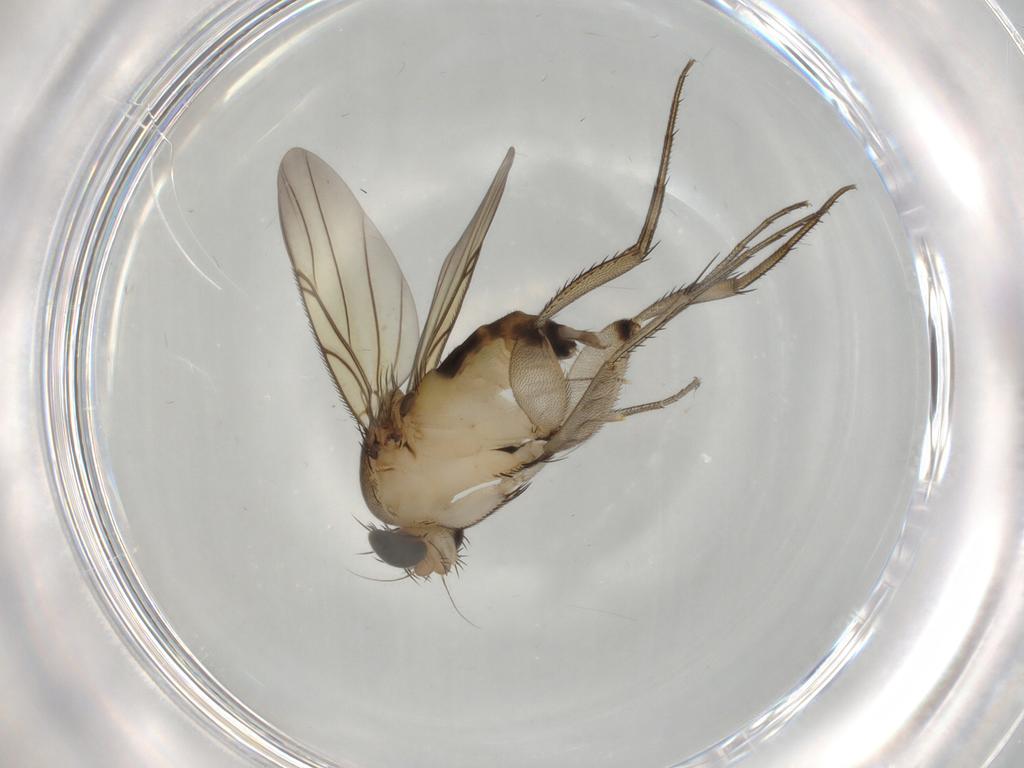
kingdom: Animalia
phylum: Arthropoda
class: Insecta
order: Diptera
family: Phoridae
